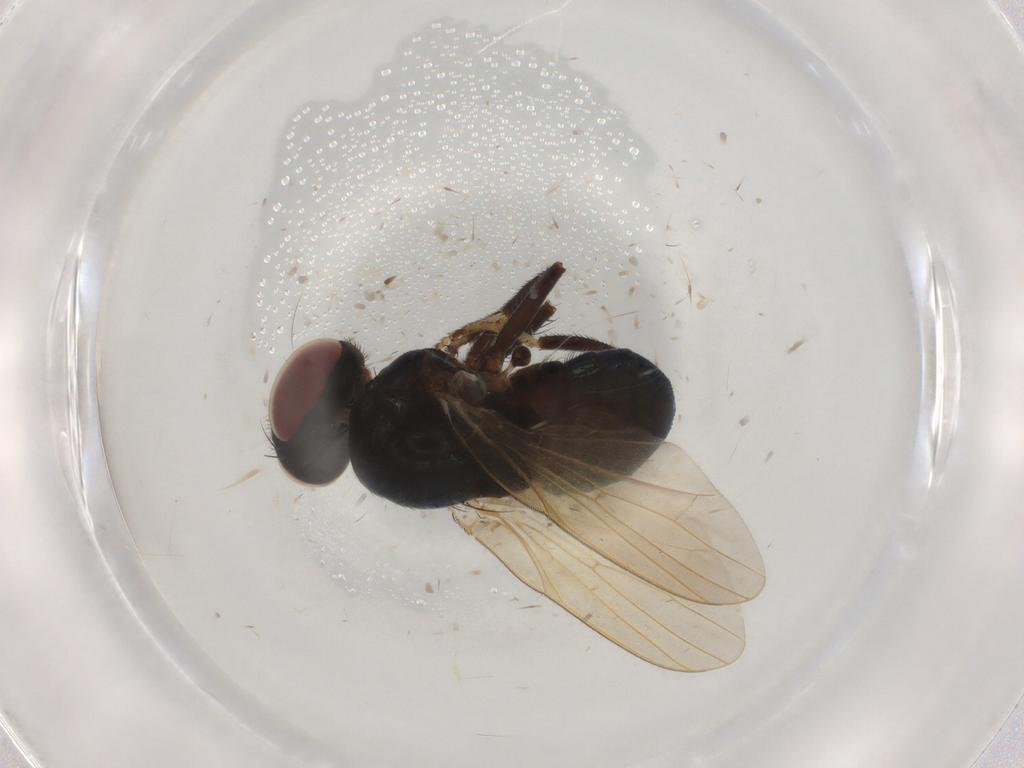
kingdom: Animalia
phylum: Arthropoda
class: Insecta
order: Diptera
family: Lonchaeidae
